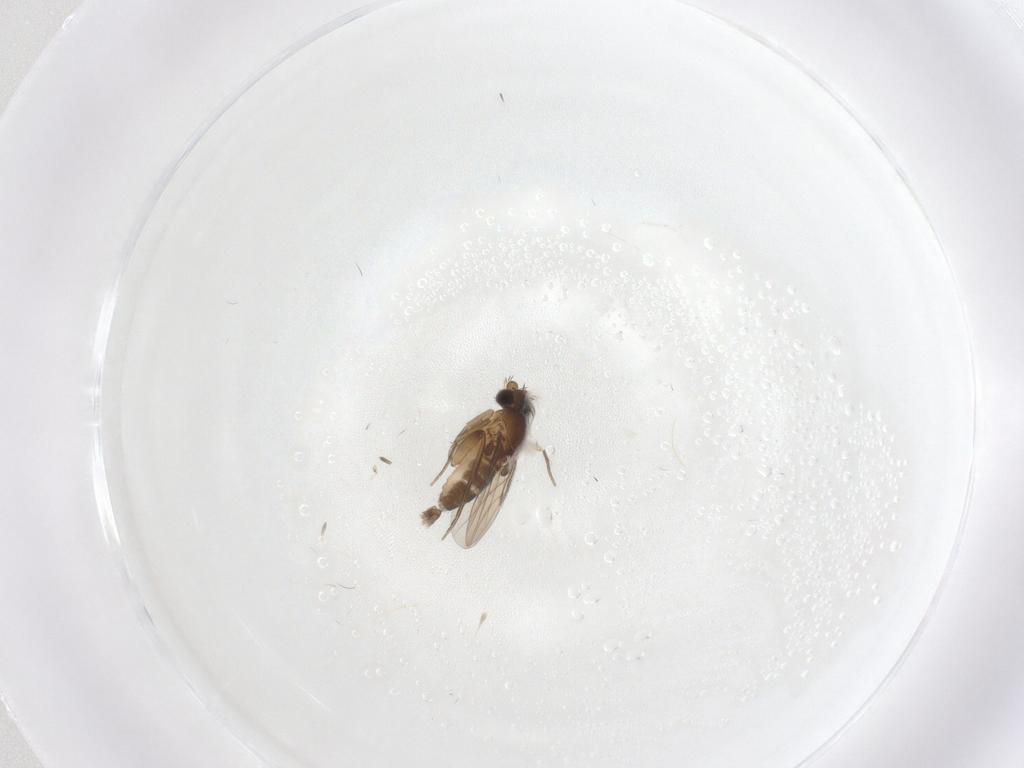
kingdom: Animalia
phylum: Arthropoda
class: Insecta
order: Diptera
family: Phoridae
